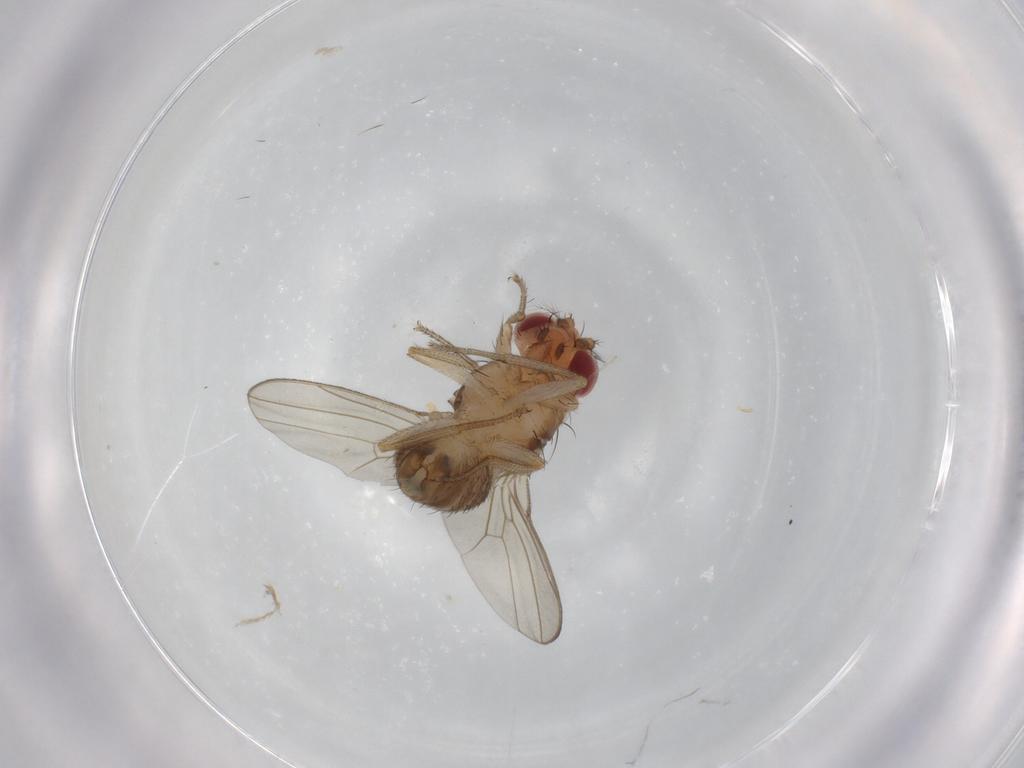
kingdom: Animalia
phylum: Arthropoda
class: Insecta
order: Diptera
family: Drosophilidae
